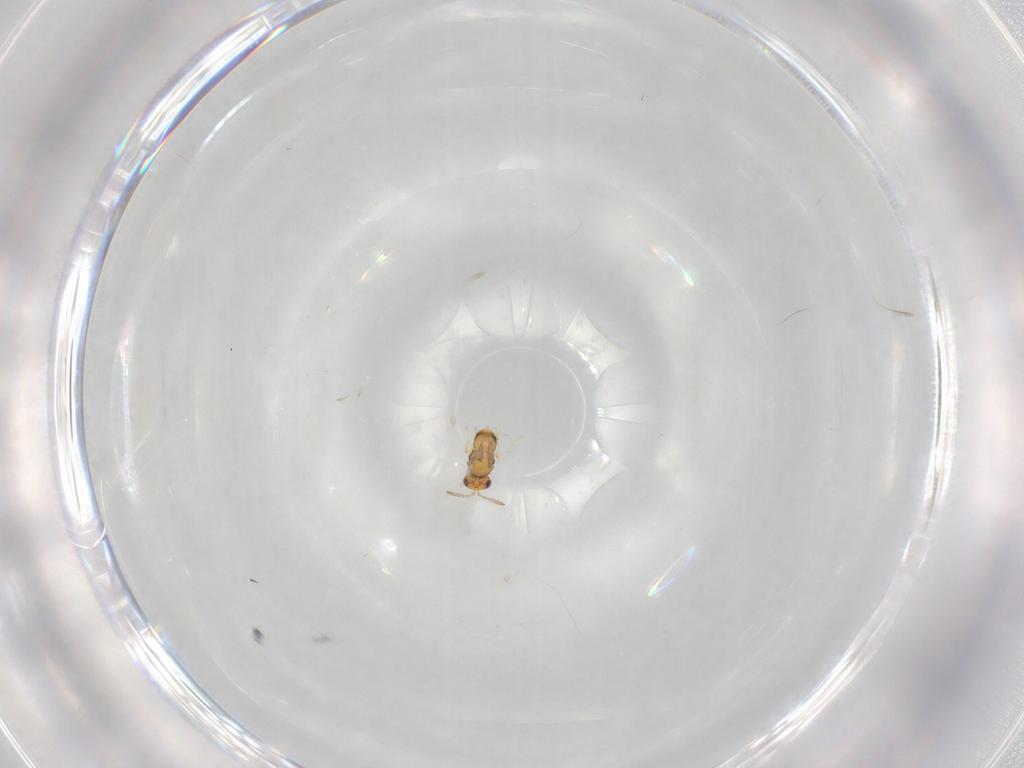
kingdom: Animalia
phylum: Arthropoda
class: Insecta
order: Hymenoptera
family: Aphelinidae
